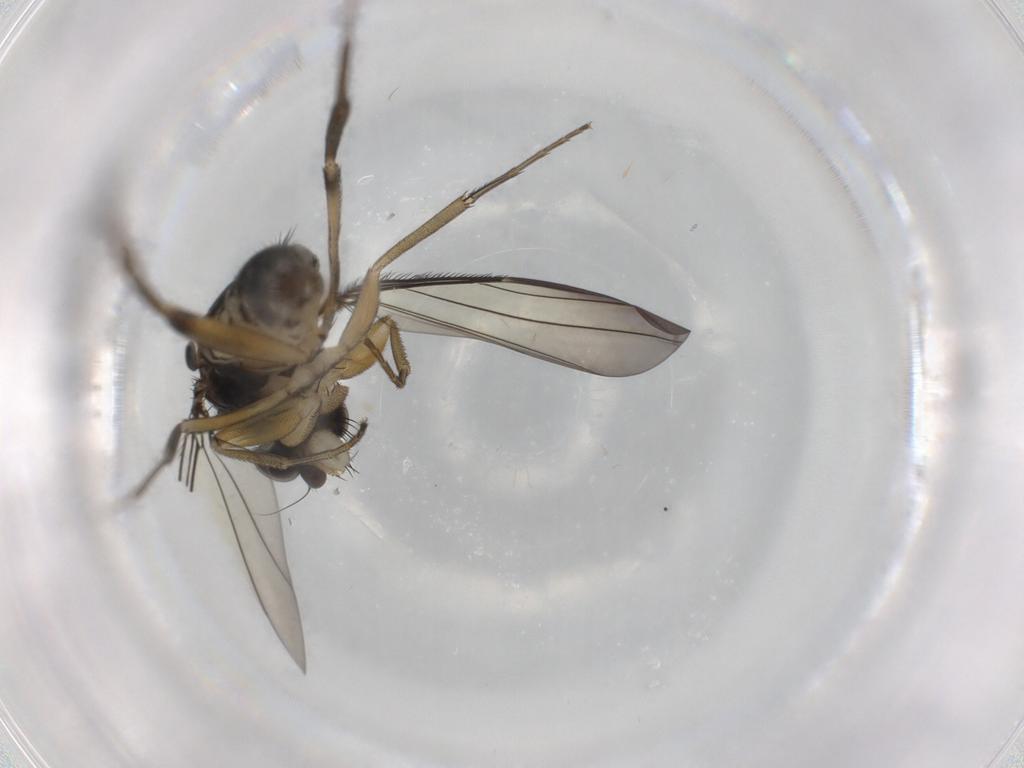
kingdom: Animalia
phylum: Arthropoda
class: Insecta
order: Diptera
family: Phoridae
